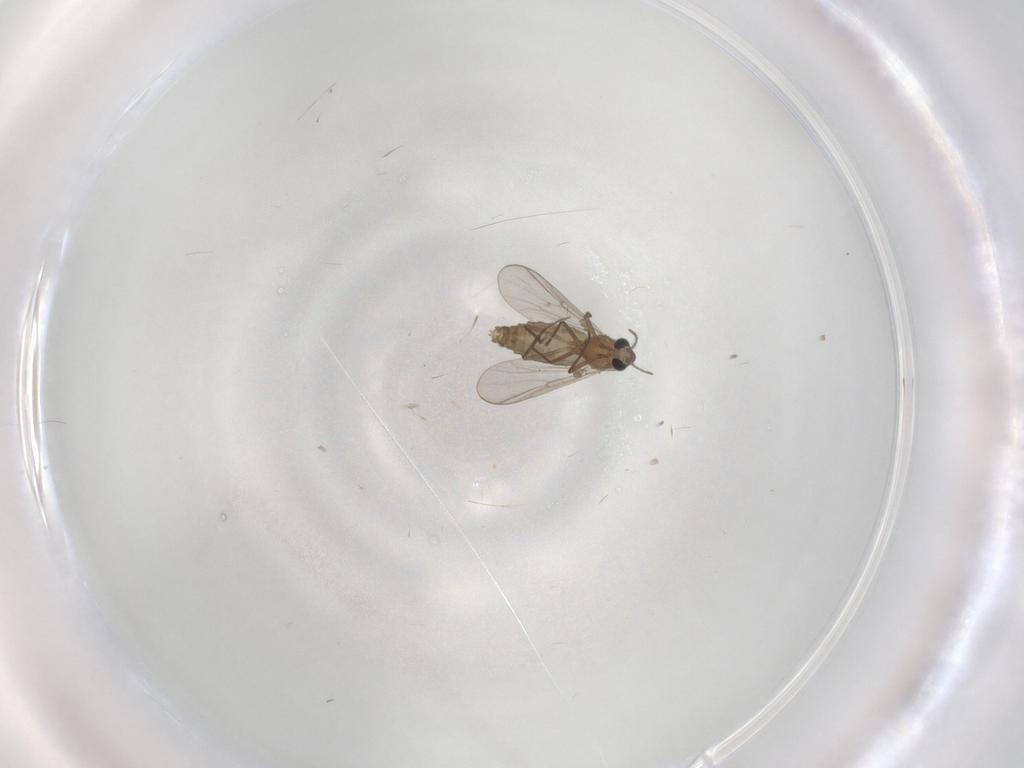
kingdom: Animalia
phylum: Arthropoda
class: Insecta
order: Diptera
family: Chironomidae
